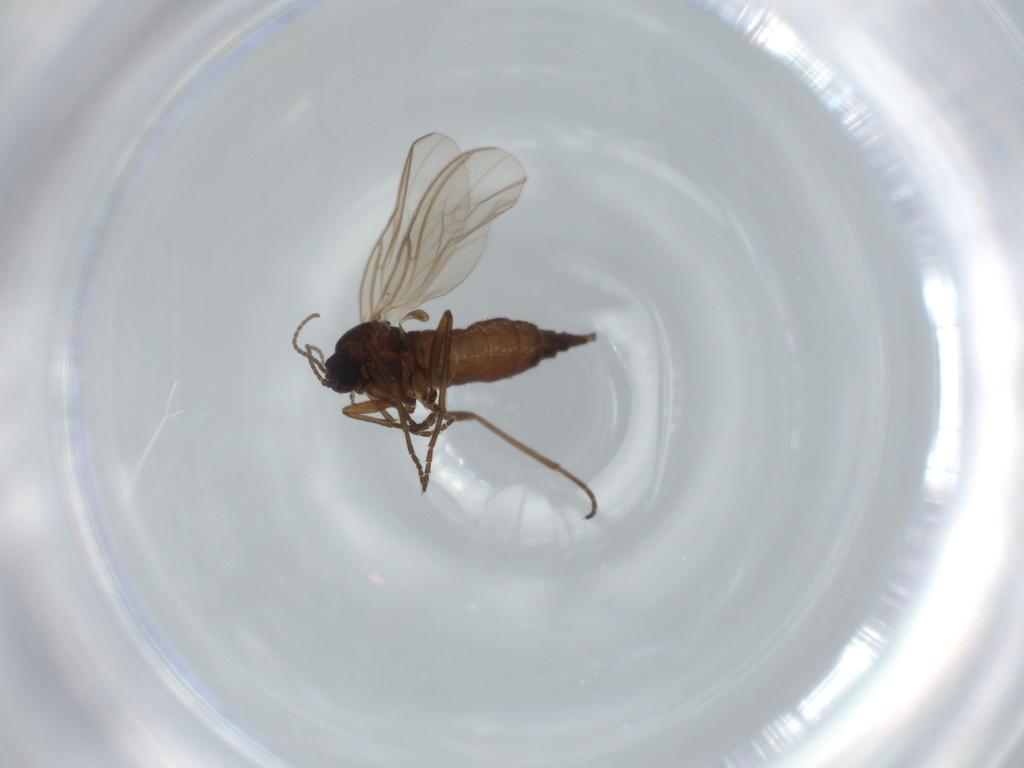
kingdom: Animalia
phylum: Arthropoda
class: Insecta
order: Diptera
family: Sciaridae
